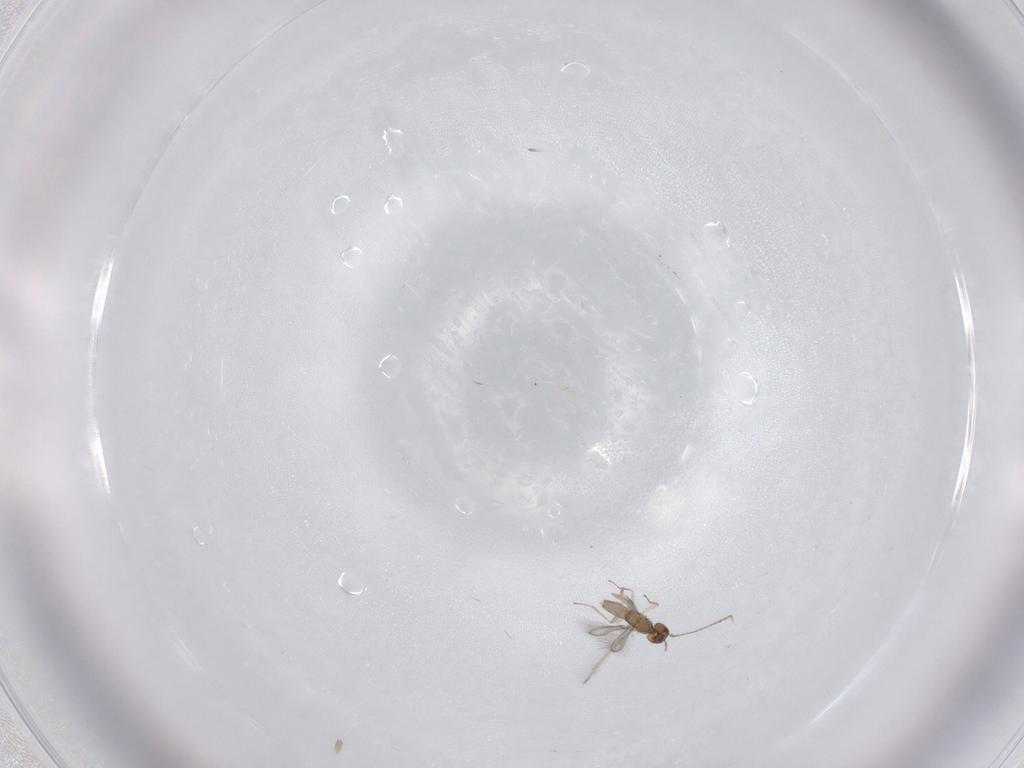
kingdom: Animalia
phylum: Arthropoda
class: Insecta
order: Hymenoptera
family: Mymaridae
